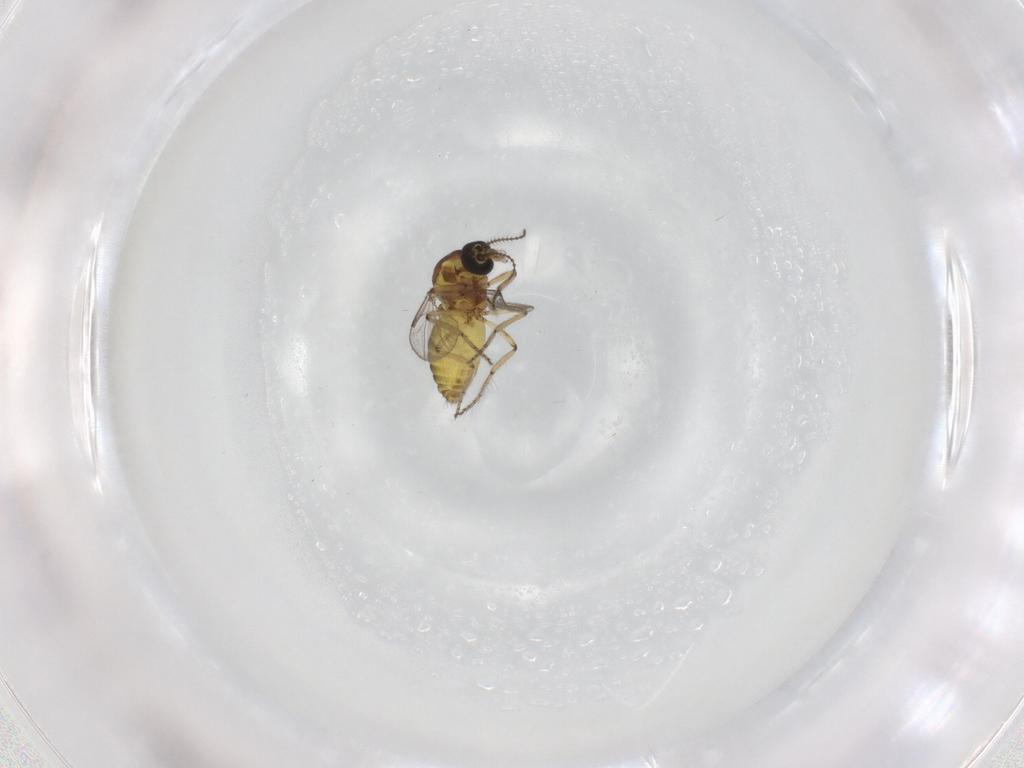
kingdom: Animalia
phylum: Arthropoda
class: Insecta
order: Diptera
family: Ceratopogonidae
